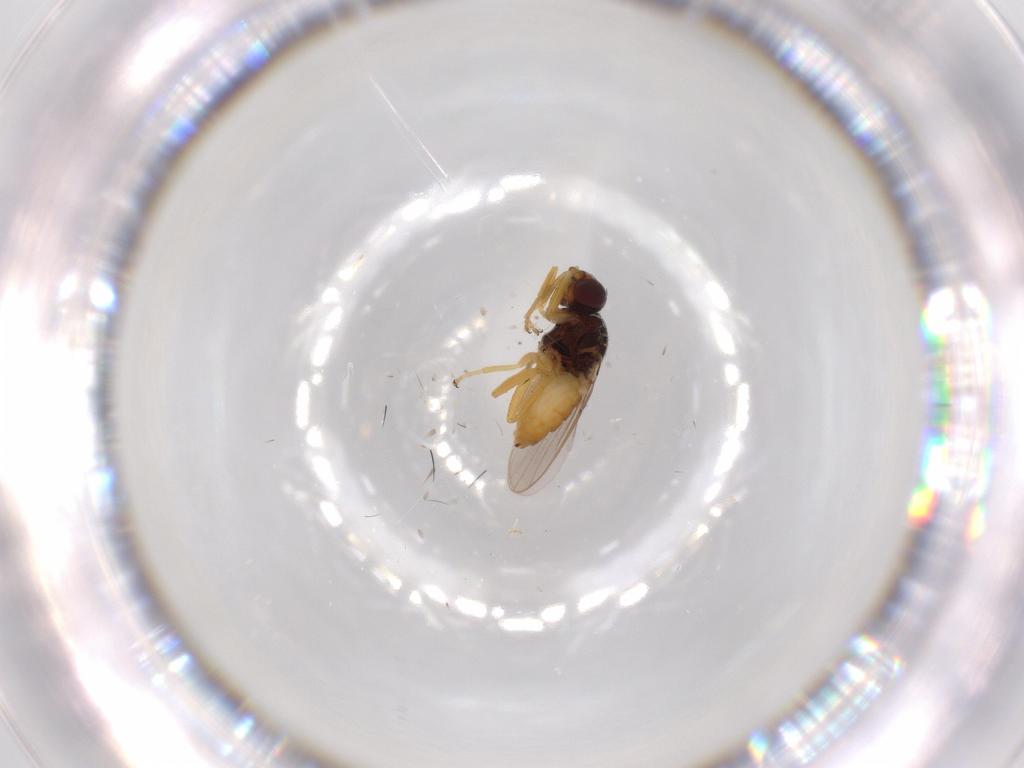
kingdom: Animalia
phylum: Arthropoda
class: Insecta
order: Diptera
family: Chloropidae
